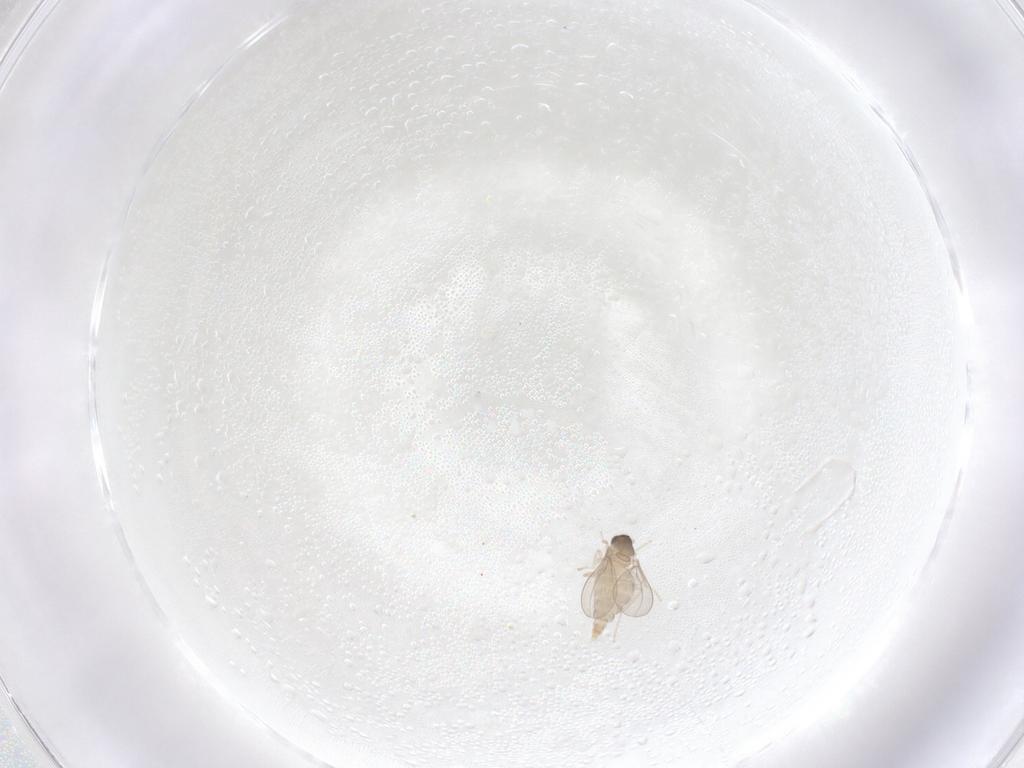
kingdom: Animalia
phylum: Arthropoda
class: Insecta
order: Diptera
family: Cecidomyiidae
